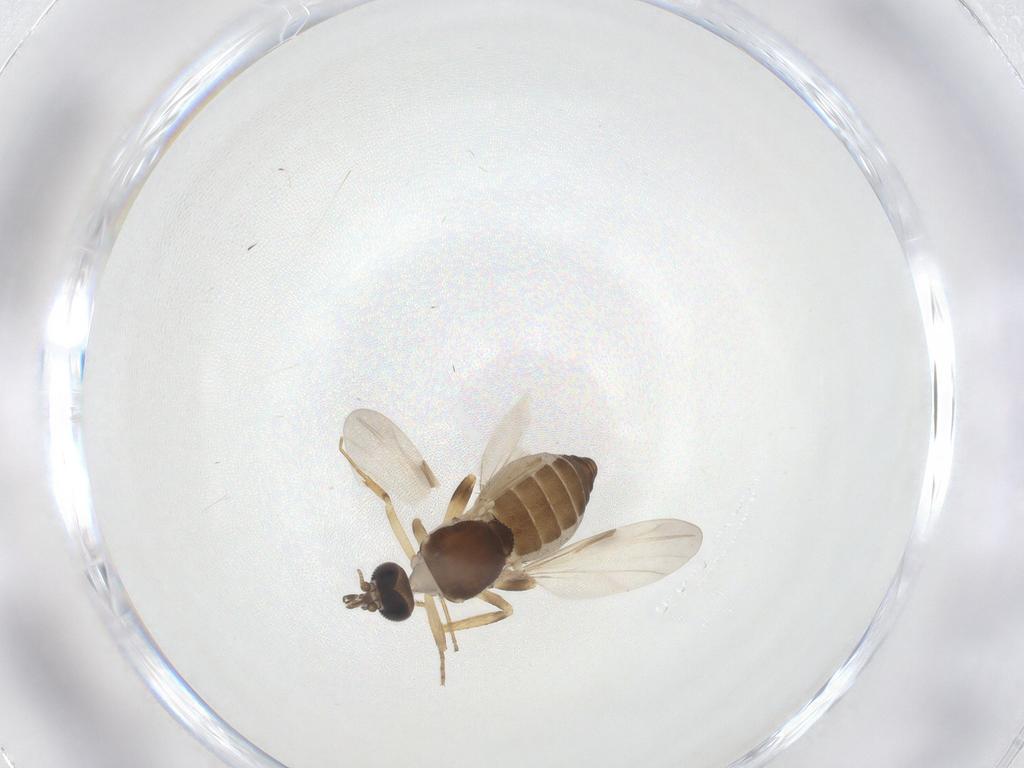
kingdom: Animalia
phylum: Arthropoda
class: Insecta
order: Diptera
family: Ceratopogonidae
